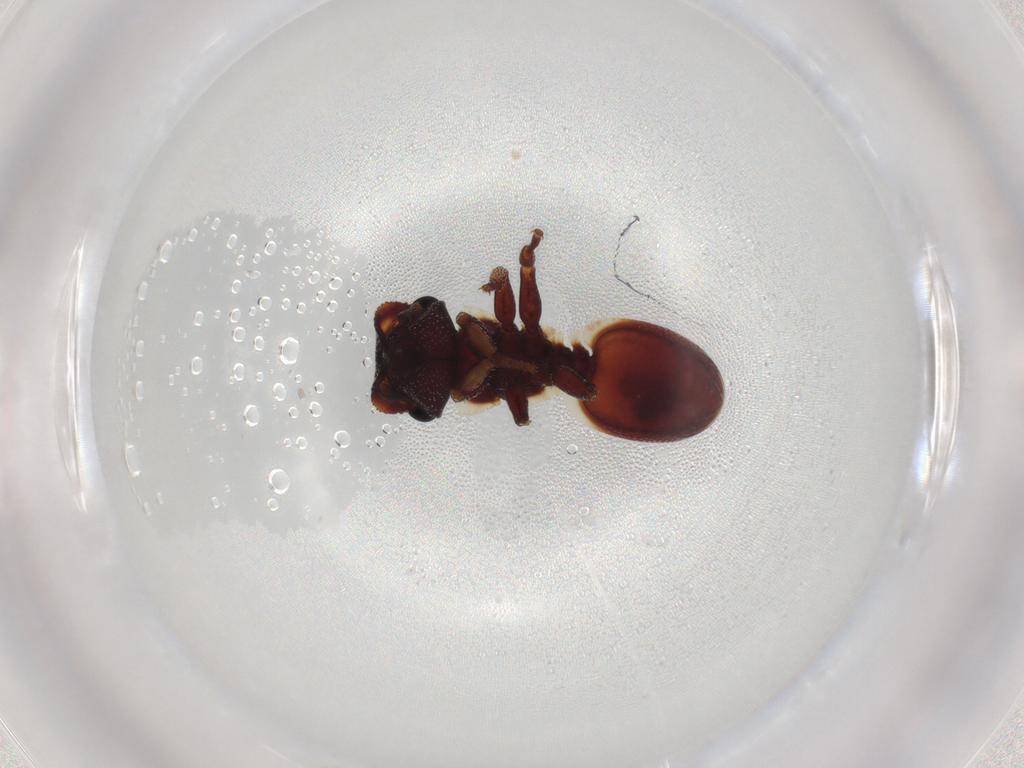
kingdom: Animalia
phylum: Arthropoda
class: Insecta
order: Hymenoptera
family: Formicidae
